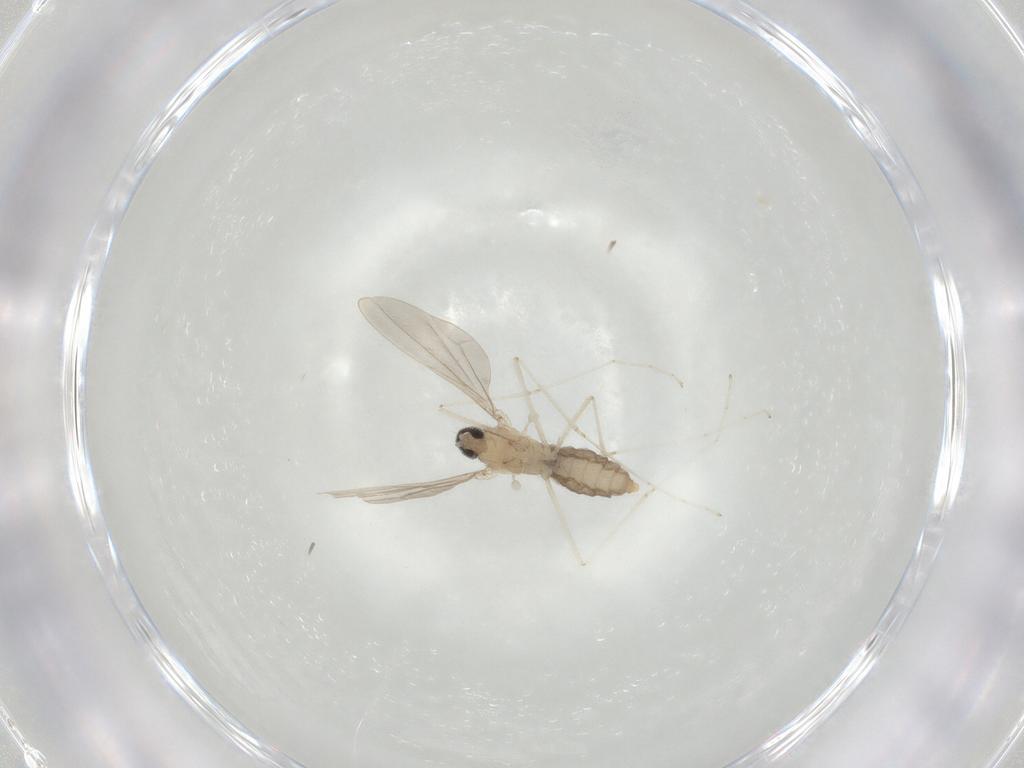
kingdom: Animalia
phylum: Arthropoda
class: Insecta
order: Diptera
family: Cecidomyiidae
